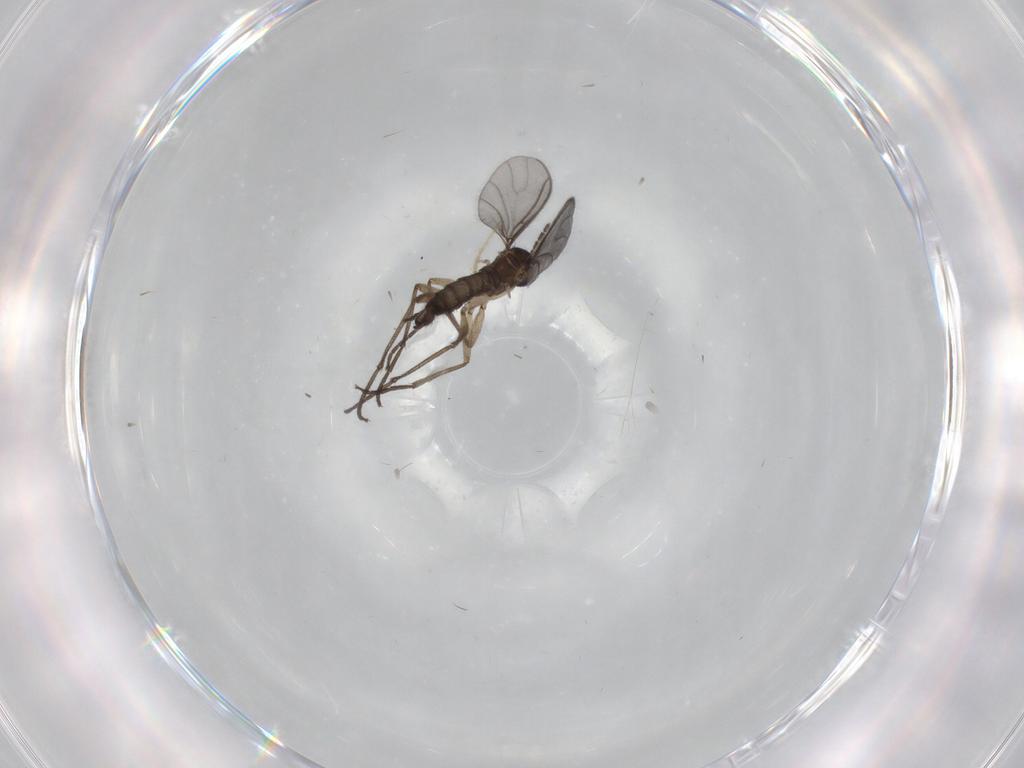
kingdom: Animalia
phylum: Arthropoda
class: Insecta
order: Diptera
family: Sciaridae
